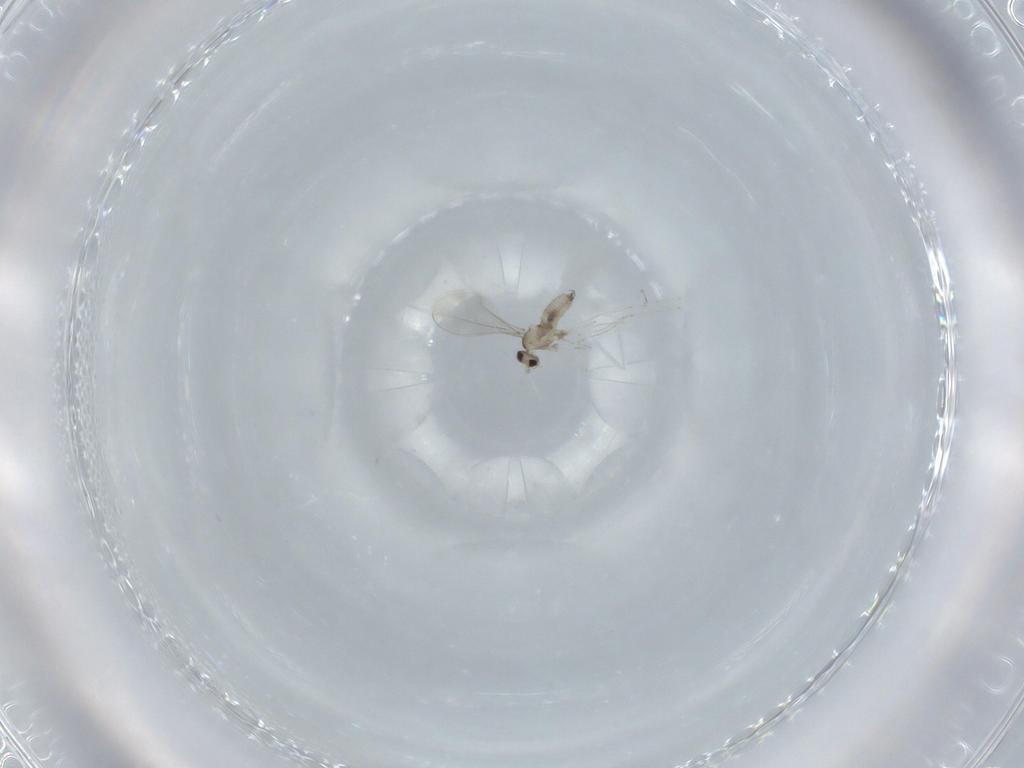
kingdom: Animalia
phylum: Arthropoda
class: Insecta
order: Diptera
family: Cecidomyiidae
